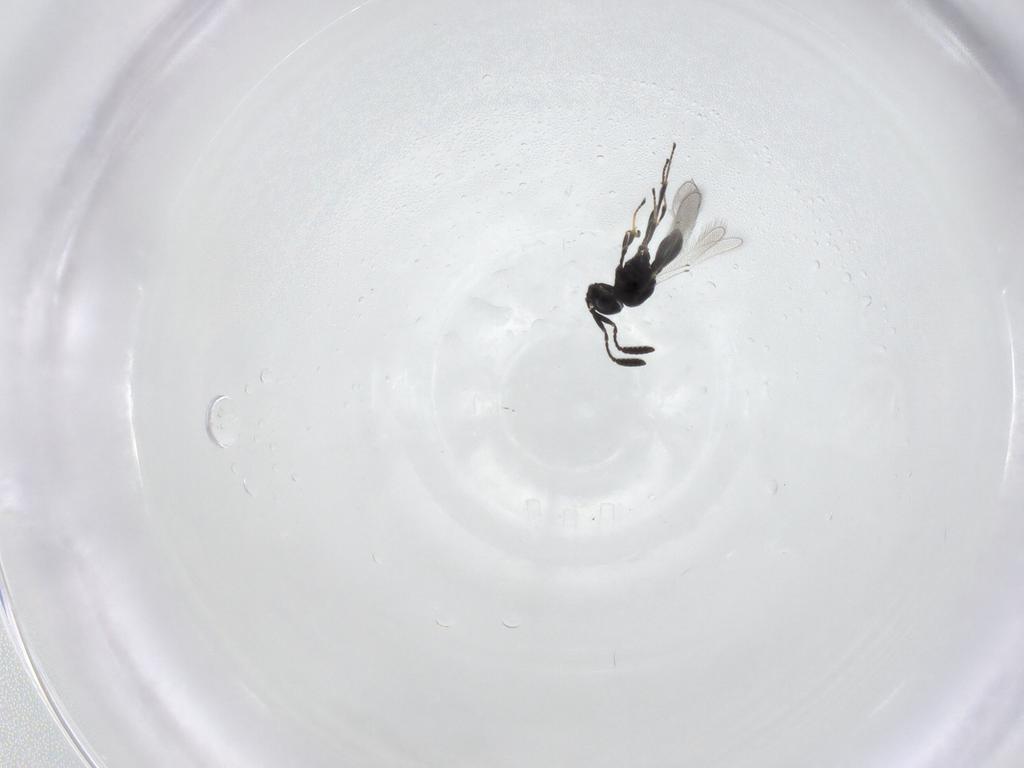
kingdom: Animalia
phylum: Arthropoda
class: Insecta
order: Hymenoptera
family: Scelionidae
